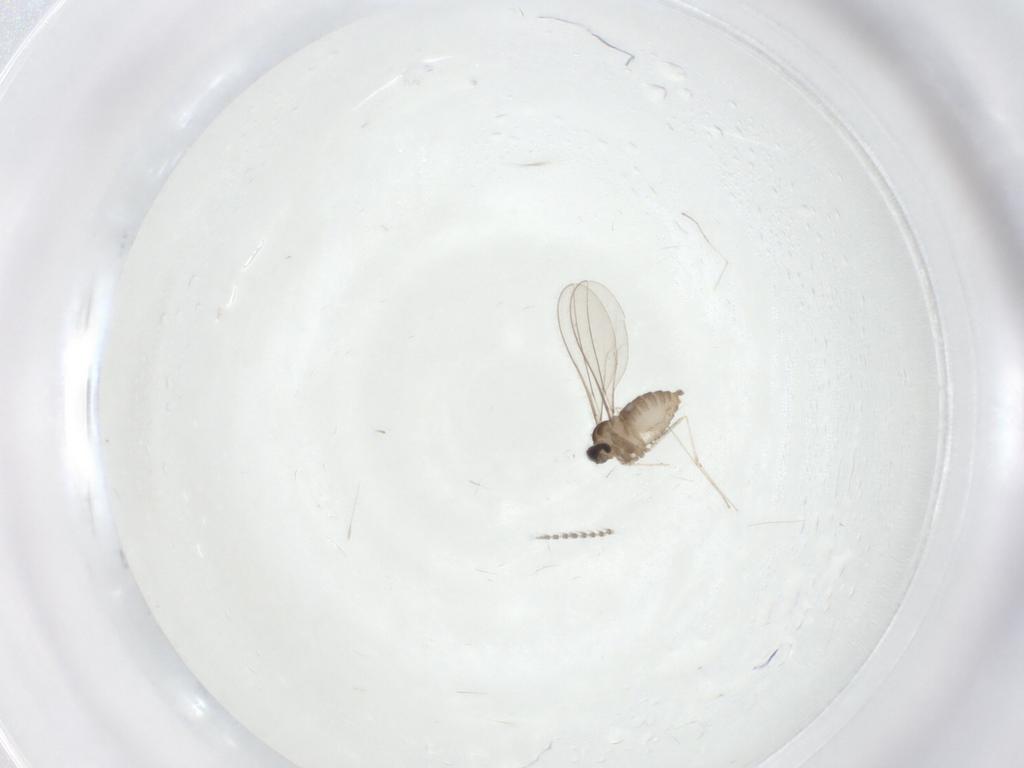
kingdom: Animalia
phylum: Arthropoda
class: Insecta
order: Diptera
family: Cecidomyiidae
